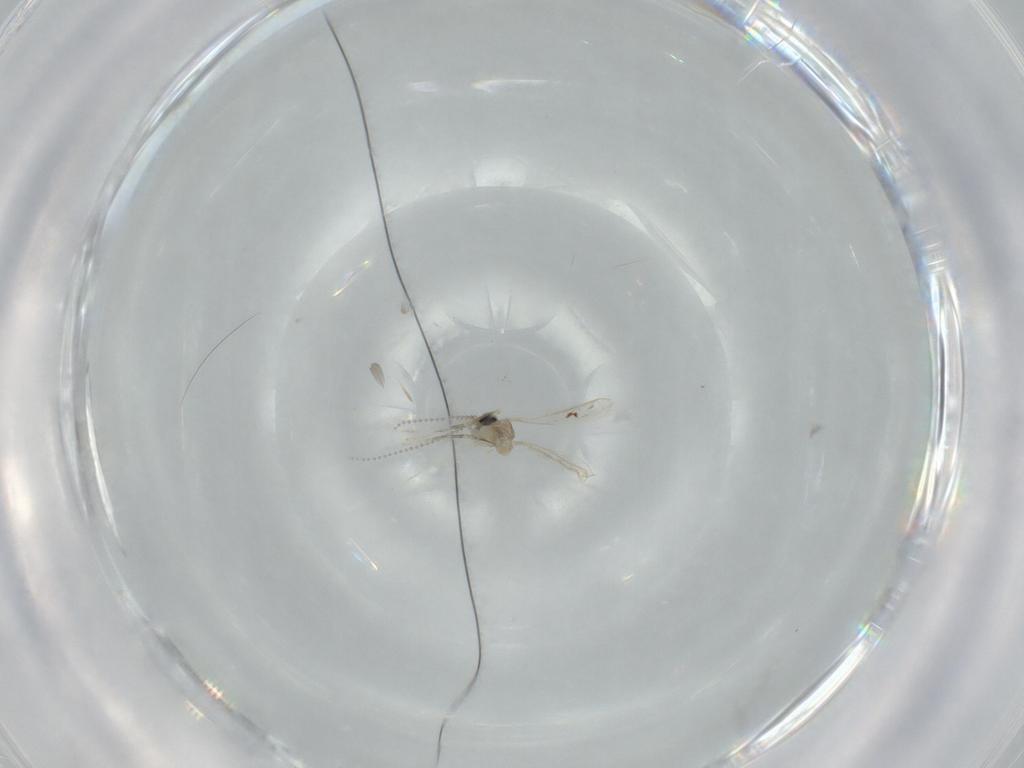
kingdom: Animalia
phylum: Arthropoda
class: Insecta
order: Diptera
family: Cecidomyiidae
